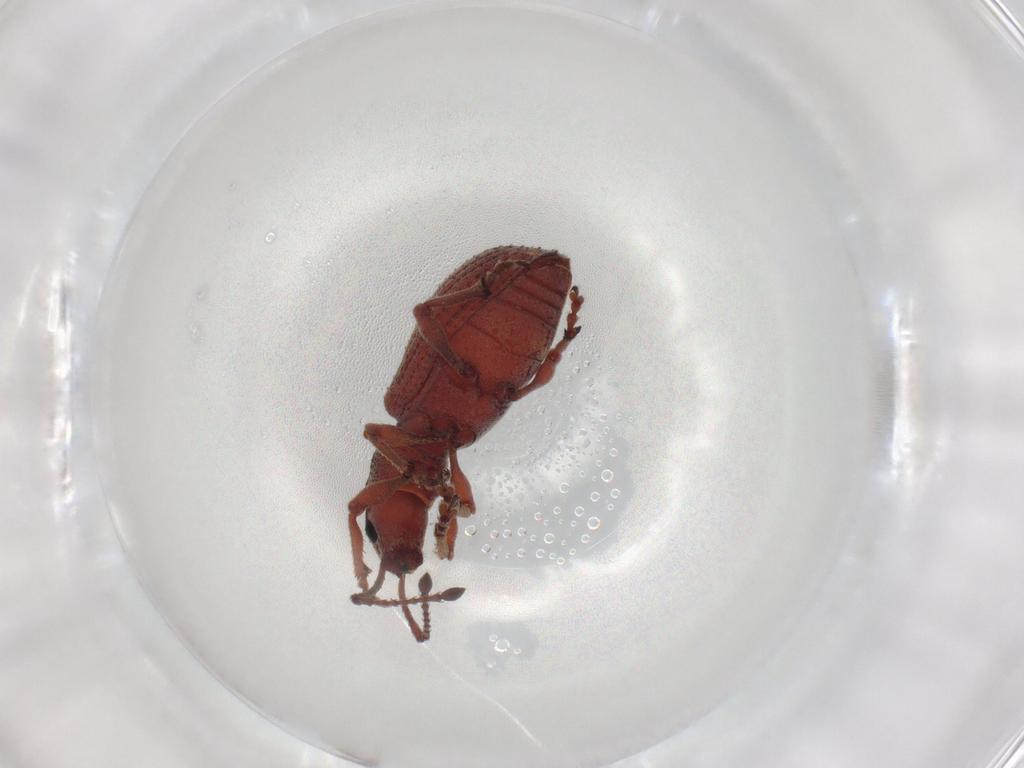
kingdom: Animalia
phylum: Arthropoda
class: Insecta
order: Coleoptera
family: Curculionidae
